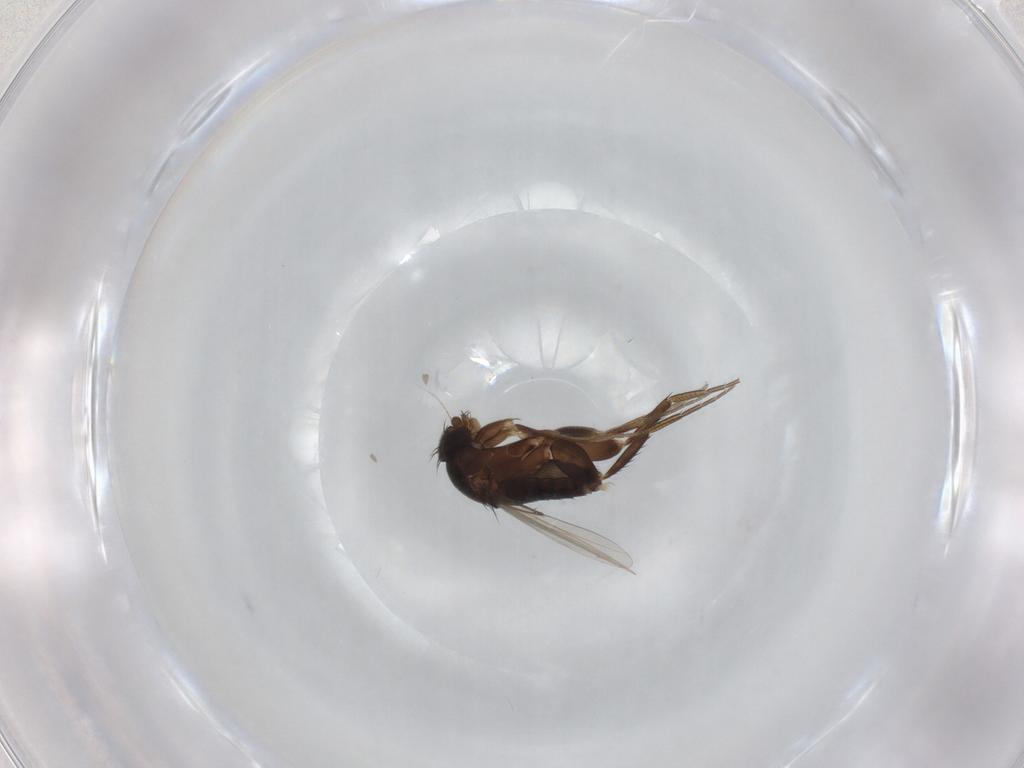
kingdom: Animalia
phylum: Arthropoda
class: Insecta
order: Diptera
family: Phoridae
